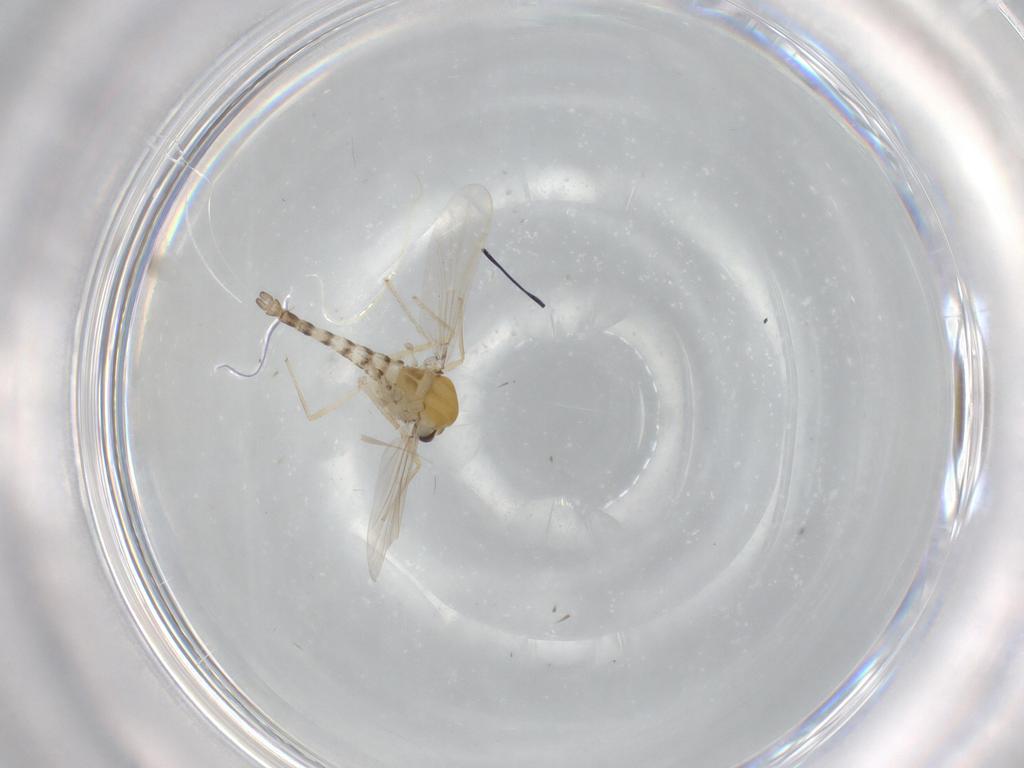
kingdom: Animalia
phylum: Arthropoda
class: Insecta
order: Diptera
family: Chironomidae
